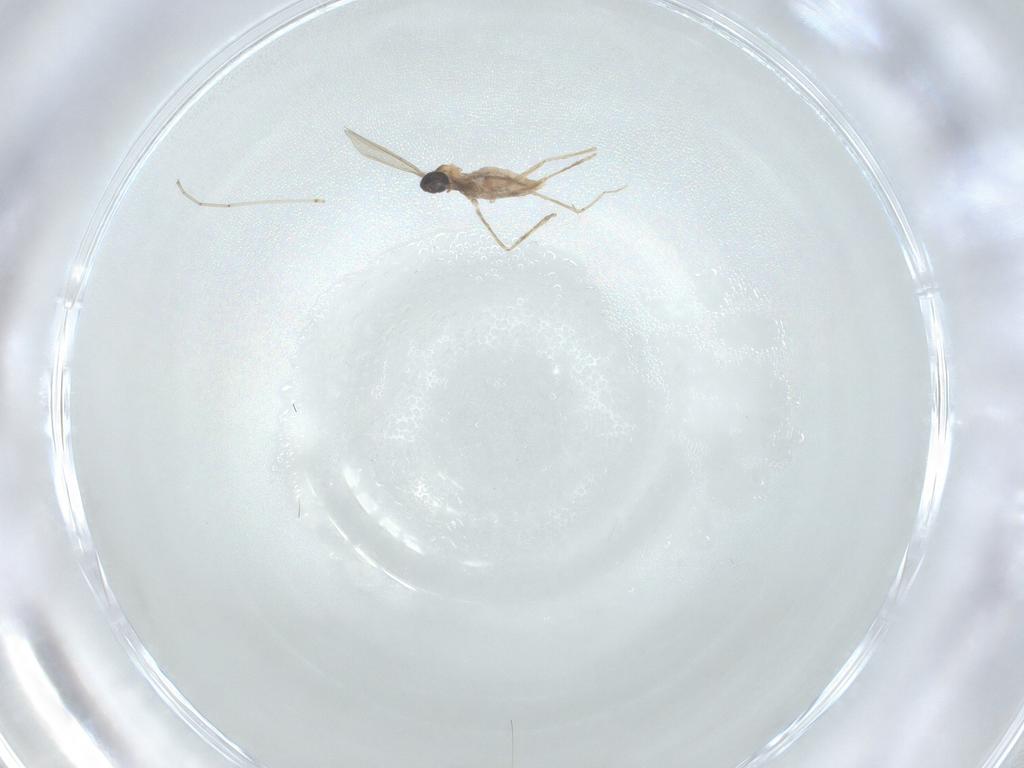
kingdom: Animalia
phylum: Arthropoda
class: Insecta
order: Diptera
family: Cecidomyiidae
